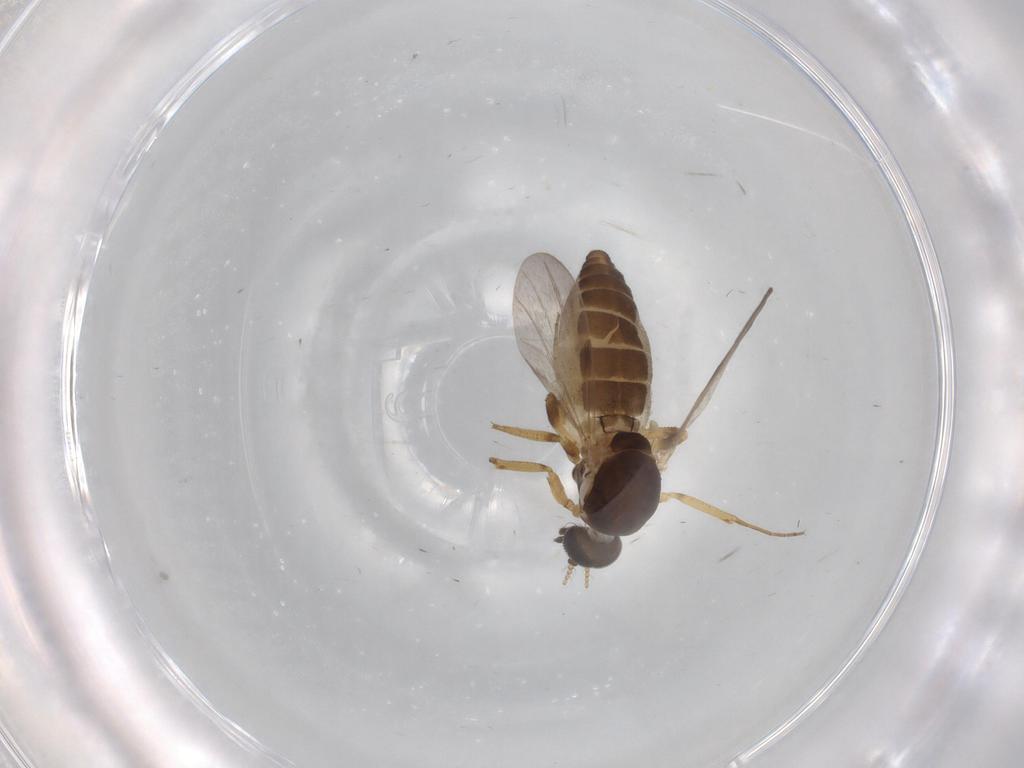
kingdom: Animalia
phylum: Arthropoda
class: Insecta
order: Diptera
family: Ceratopogonidae
